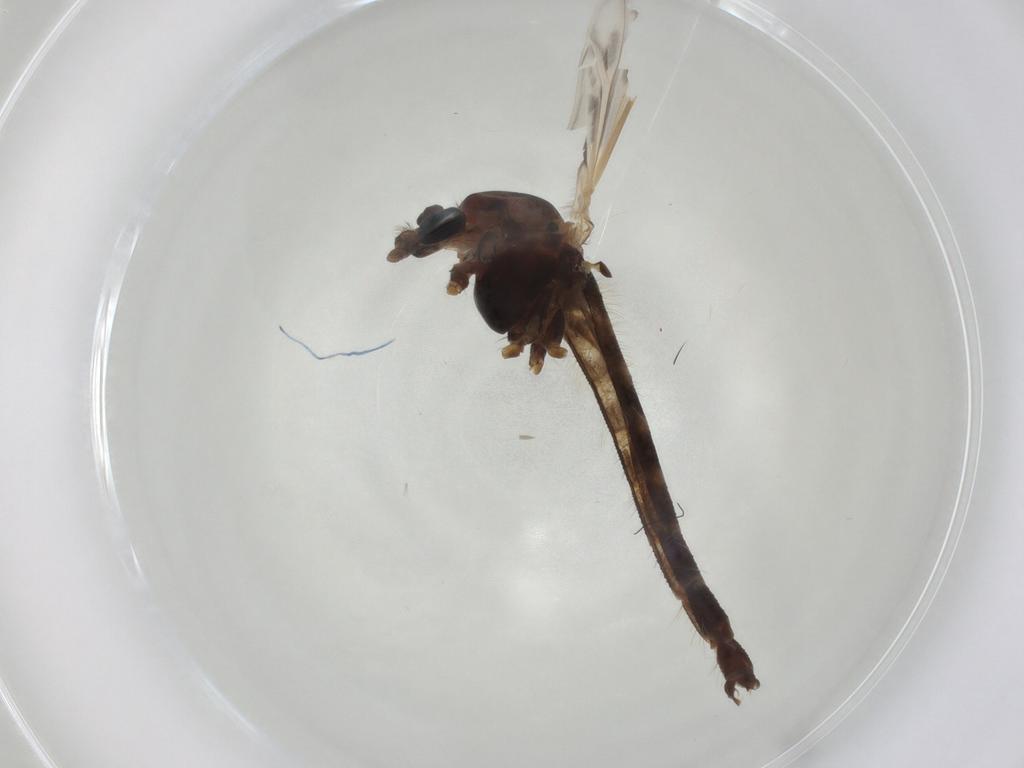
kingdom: Animalia
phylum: Arthropoda
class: Insecta
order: Diptera
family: Chironomidae
